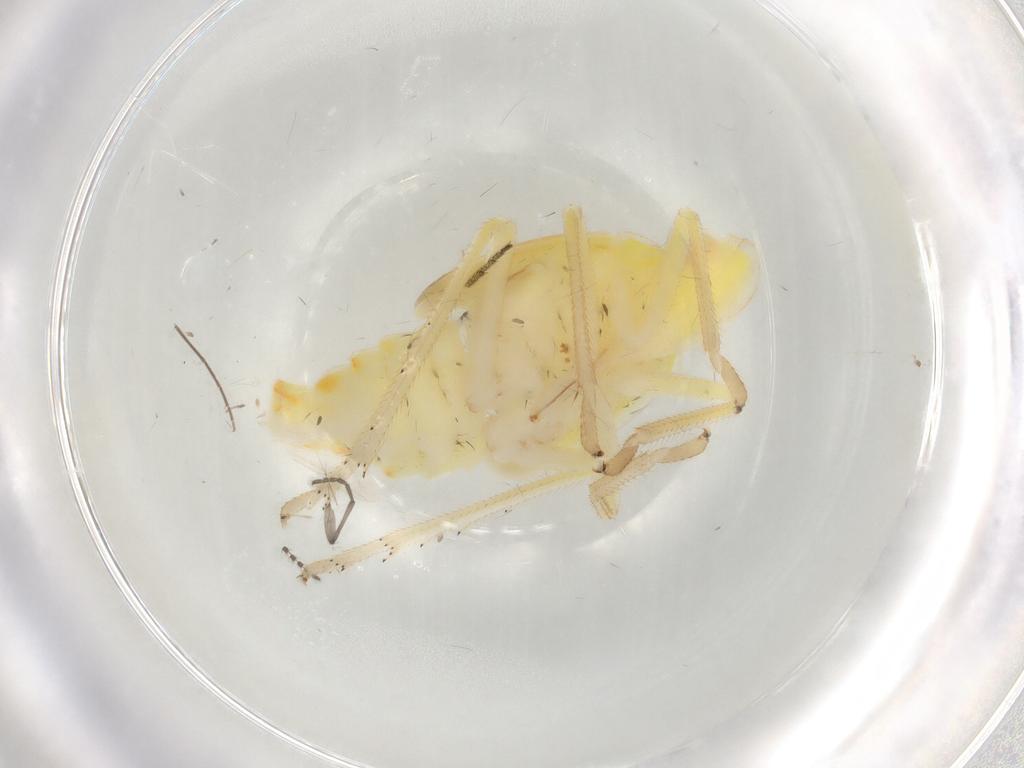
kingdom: Animalia
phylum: Arthropoda
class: Insecta
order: Hemiptera
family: Tropiduchidae
